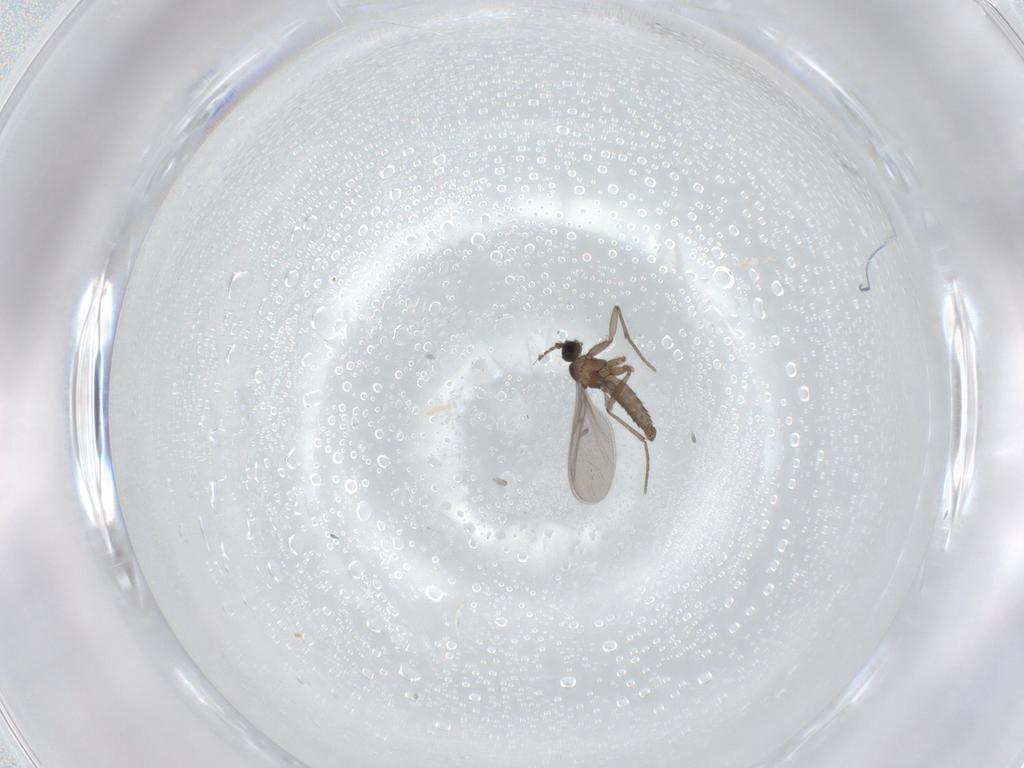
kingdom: Animalia
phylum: Arthropoda
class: Insecta
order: Diptera
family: Sciaridae
